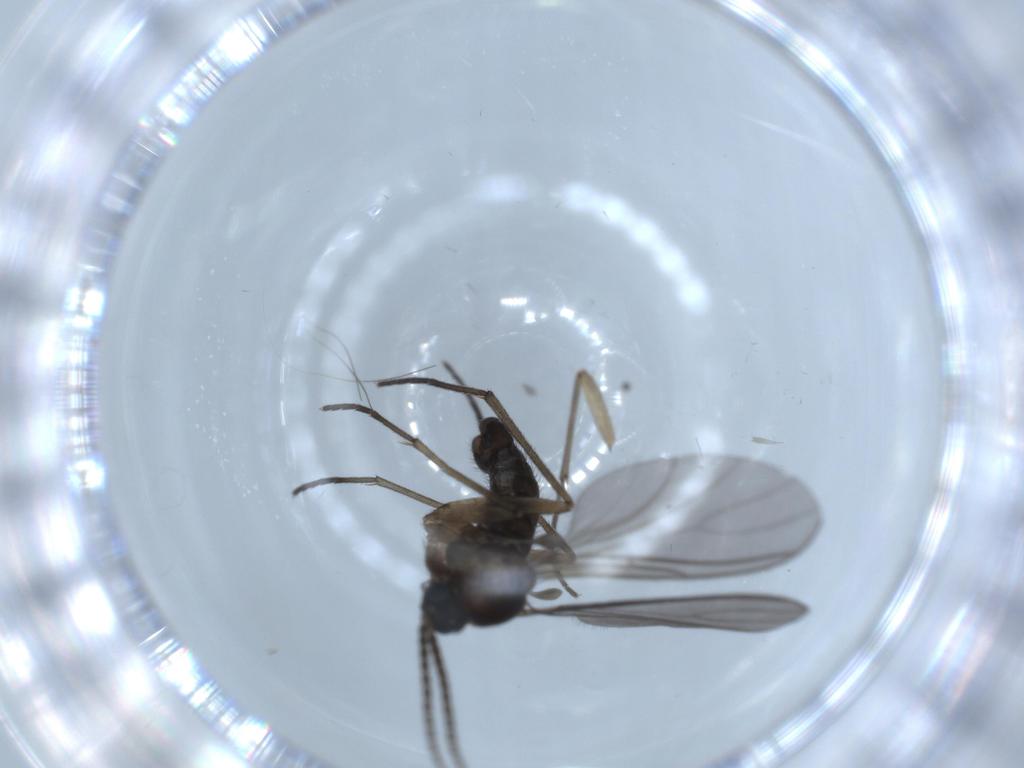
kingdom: Animalia
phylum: Arthropoda
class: Insecta
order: Diptera
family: Sciaridae
